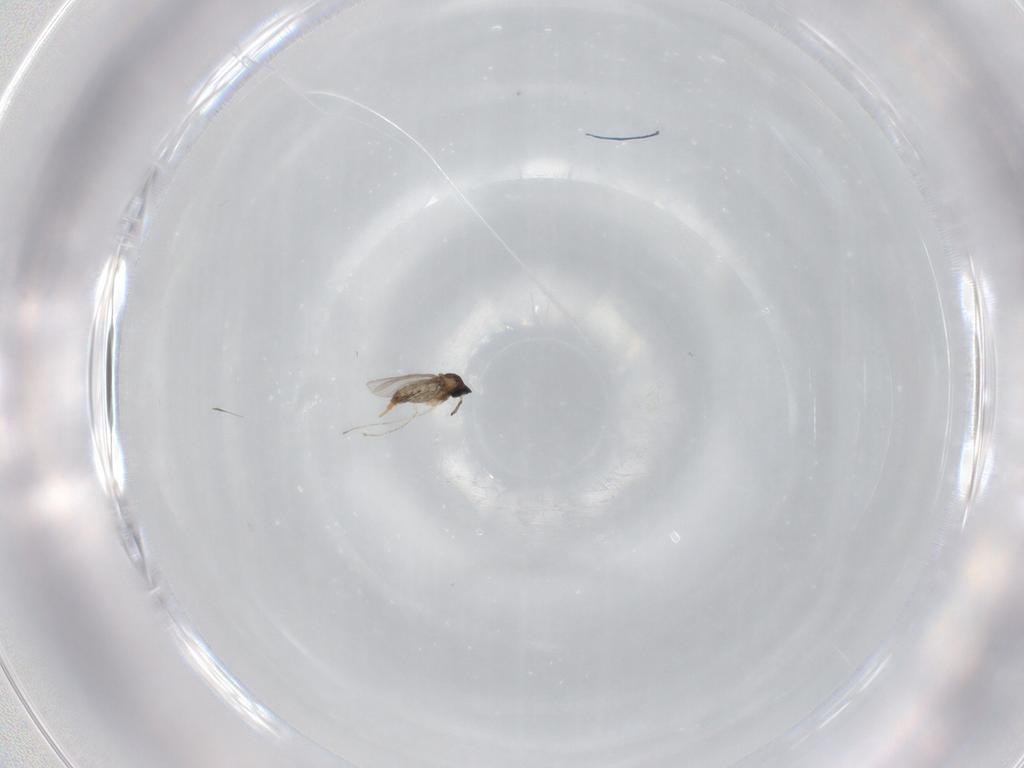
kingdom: Animalia
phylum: Arthropoda
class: Insecta
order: Diptera
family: Cecidomyiidae
